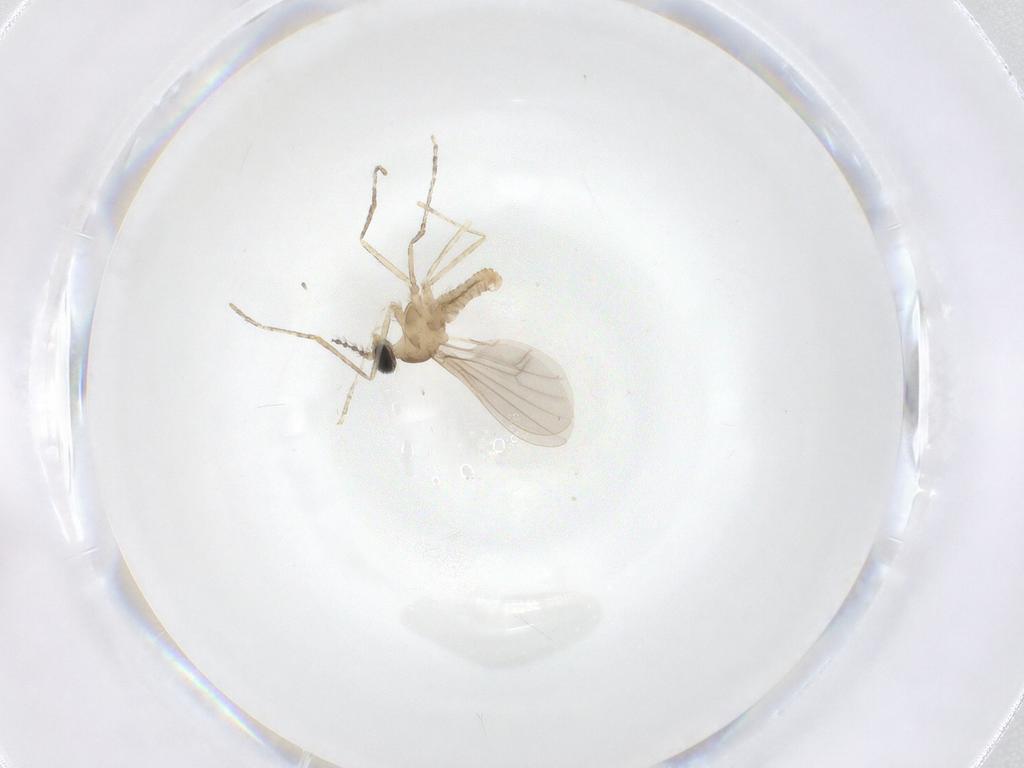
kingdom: Animalia
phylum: Arthropoda
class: Insecta
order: Diptera
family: Cecidomyiidae
